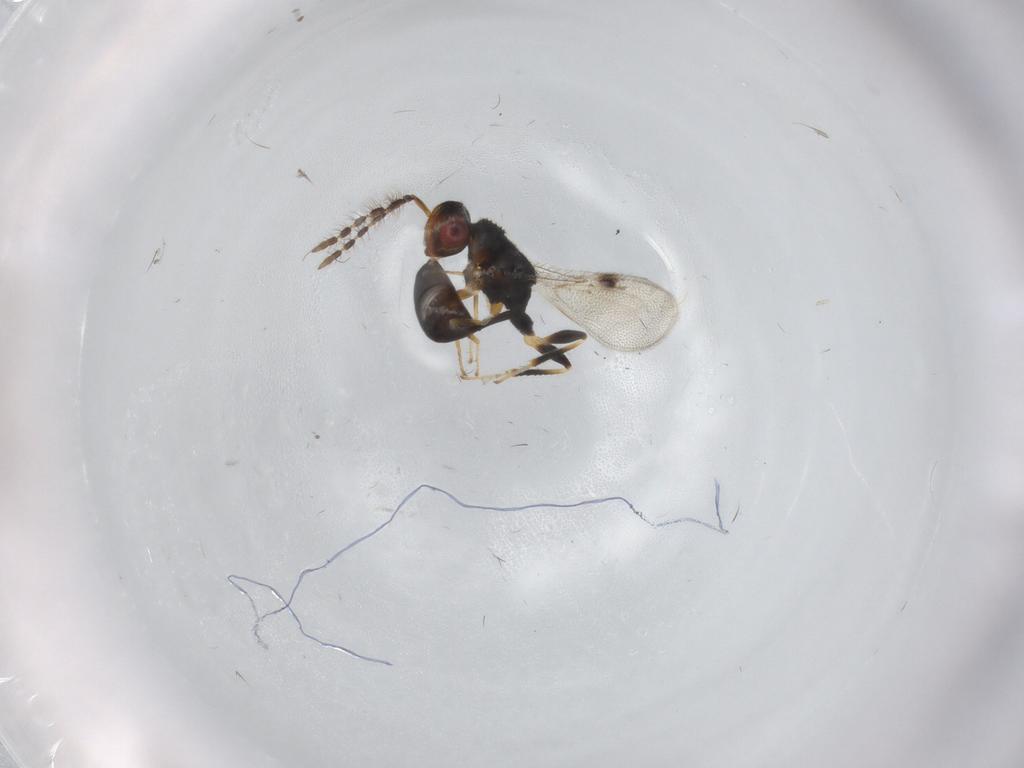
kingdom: Animalia
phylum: Arthropoda
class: Insecta
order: Hymenoptera
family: Eurytomidae
